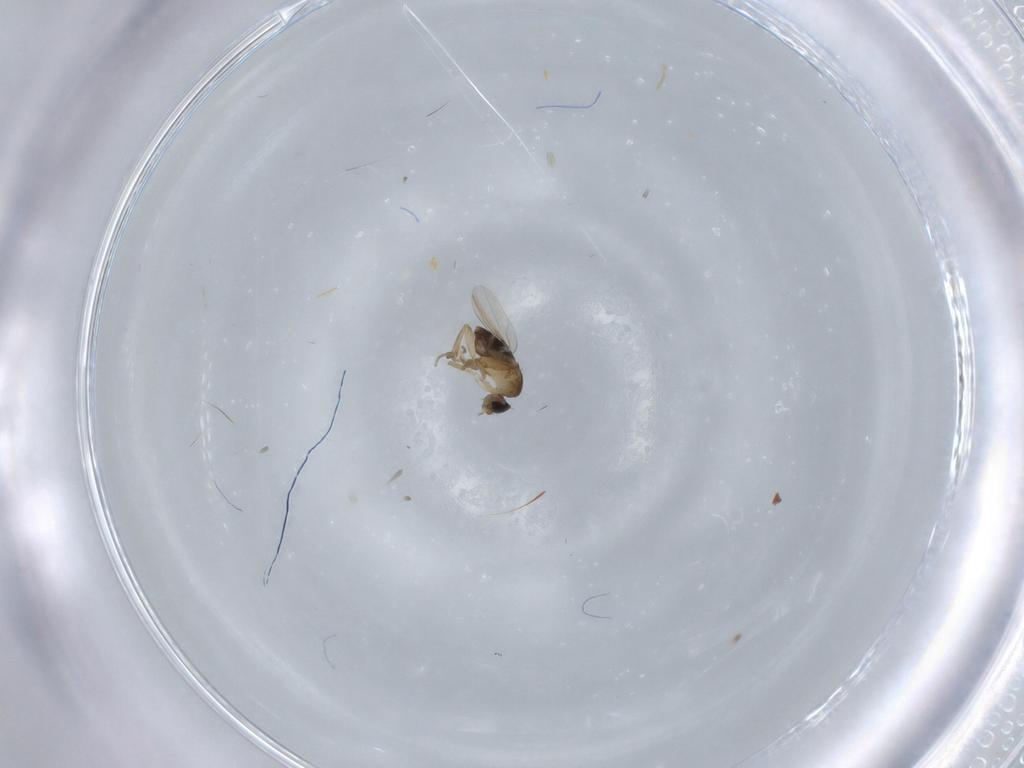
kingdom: Animalia
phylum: Arthropoda
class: Insecta
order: Diptera
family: Phoridae
